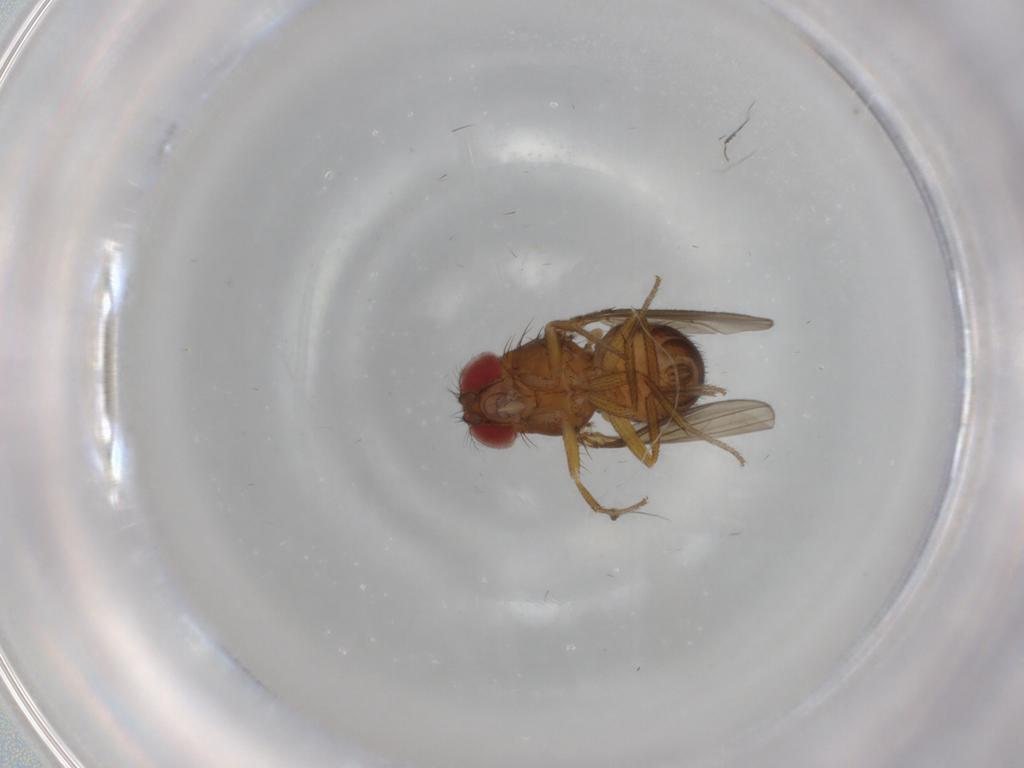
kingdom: Animalia
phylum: Arthropoda
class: Insecta
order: Diptera
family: Drosophilidae
